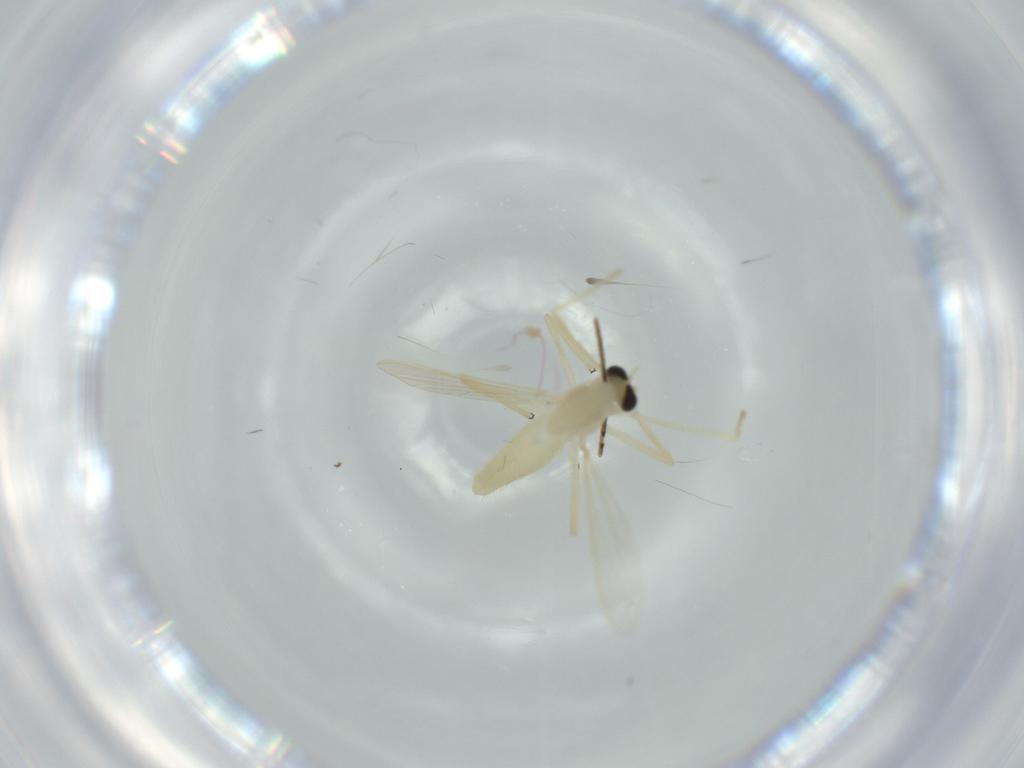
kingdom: Animalia
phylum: Arthropoda
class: Insecta
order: Diptera
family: Chironomidae
